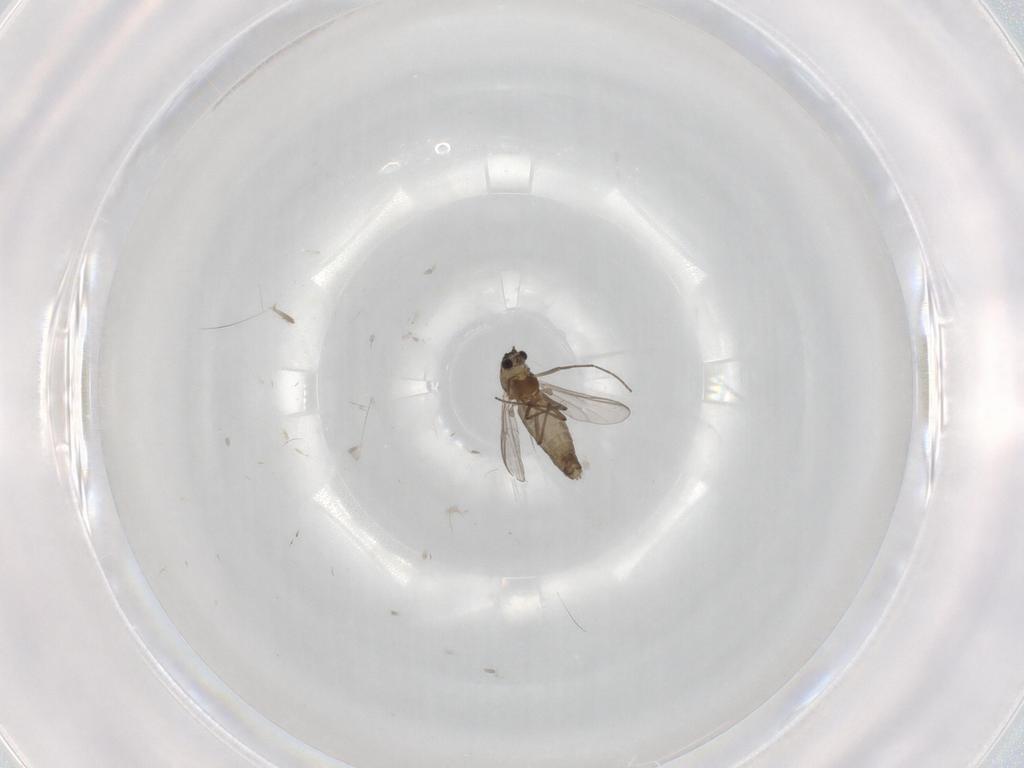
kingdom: Animalia
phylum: Arthropoda
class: Insecta
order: Diptera
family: Chironomidae
